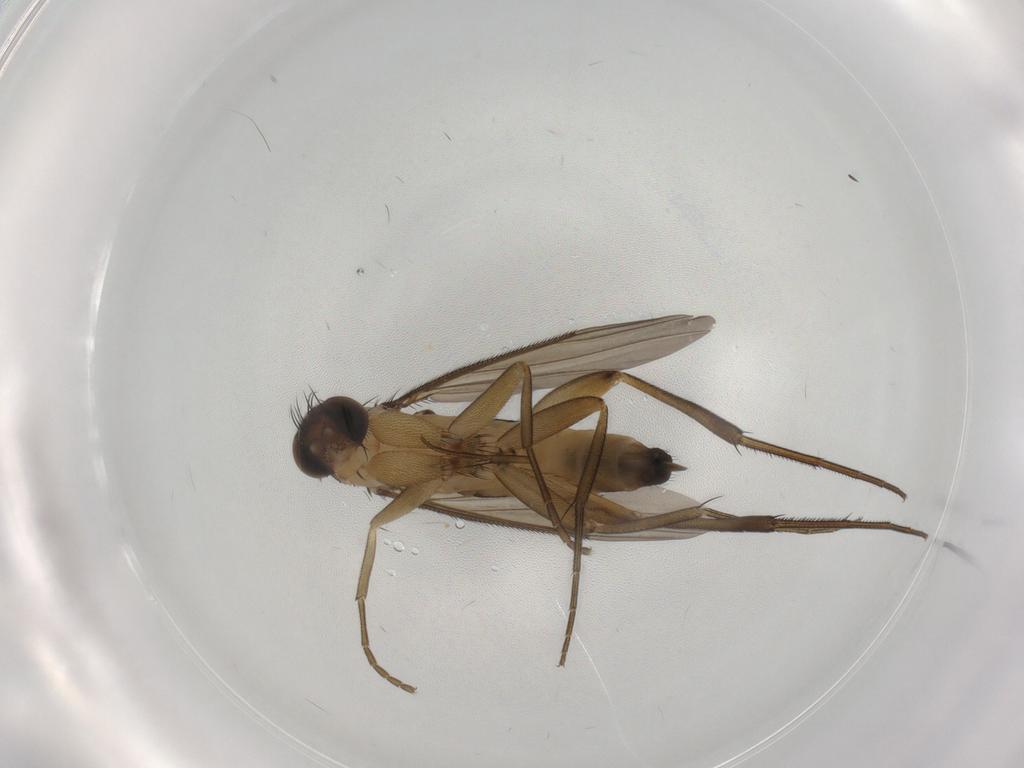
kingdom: Animalia
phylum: Arthropoda
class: Insecta
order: Diptera
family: Phoridae
